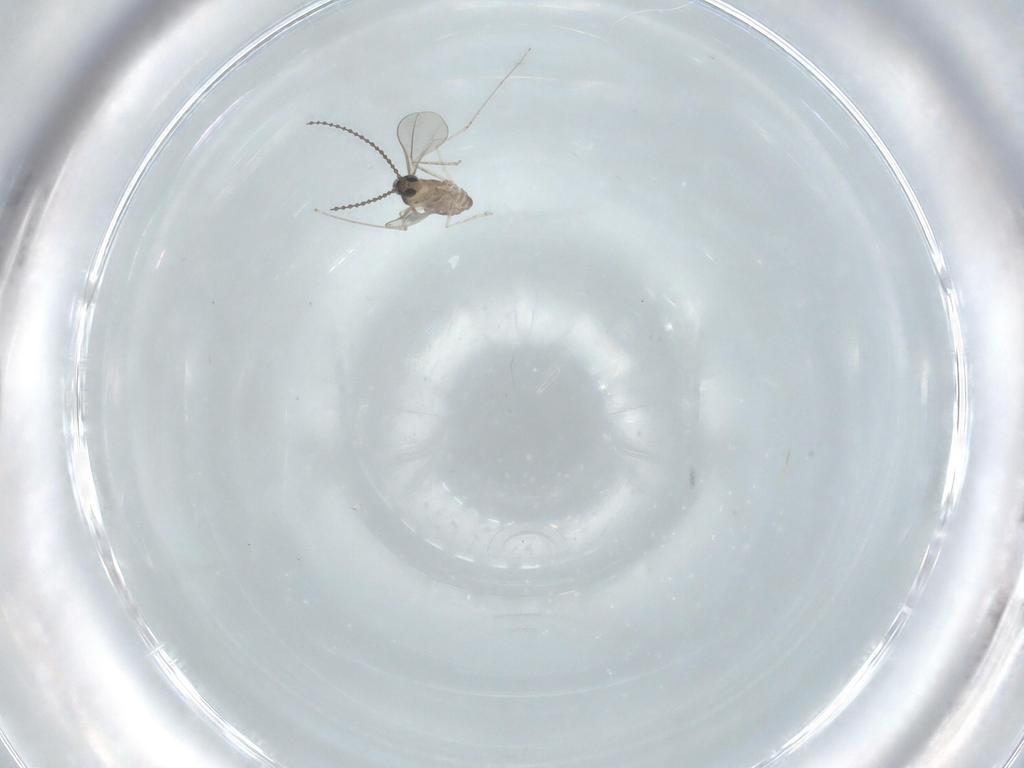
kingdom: Animalia
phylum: Arthropoda
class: Insecta
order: Diptera
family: Cecidomyiidae
